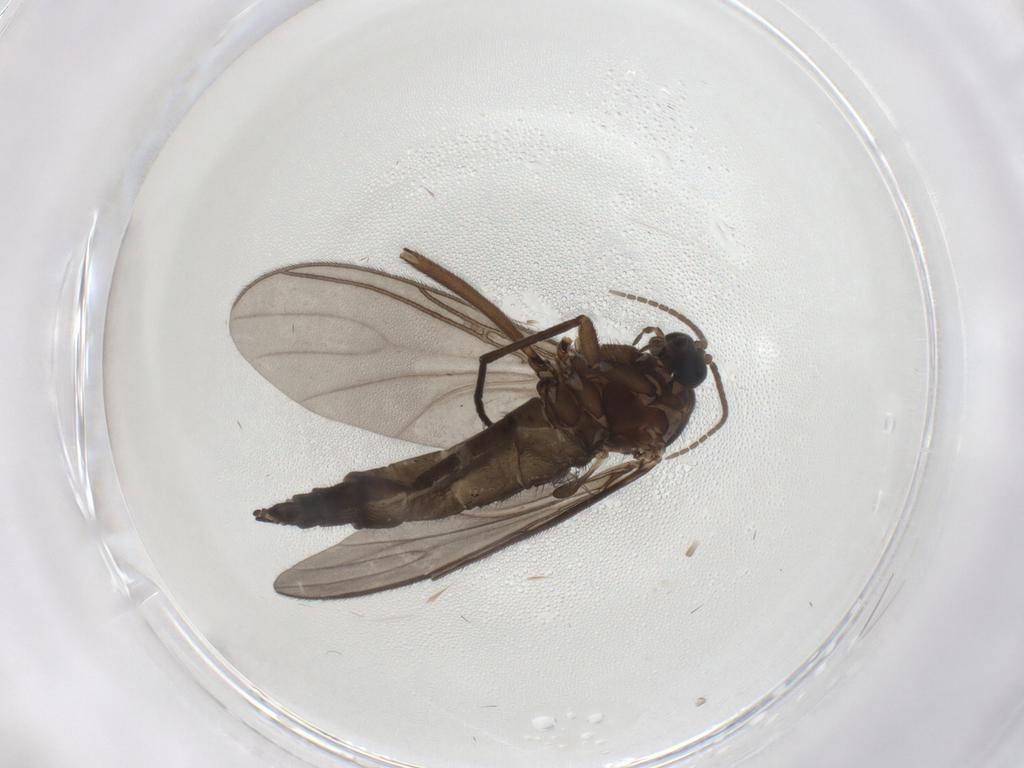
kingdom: Animalia
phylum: Arthropoda
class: Insecta
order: Diptera
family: Sciaridae
